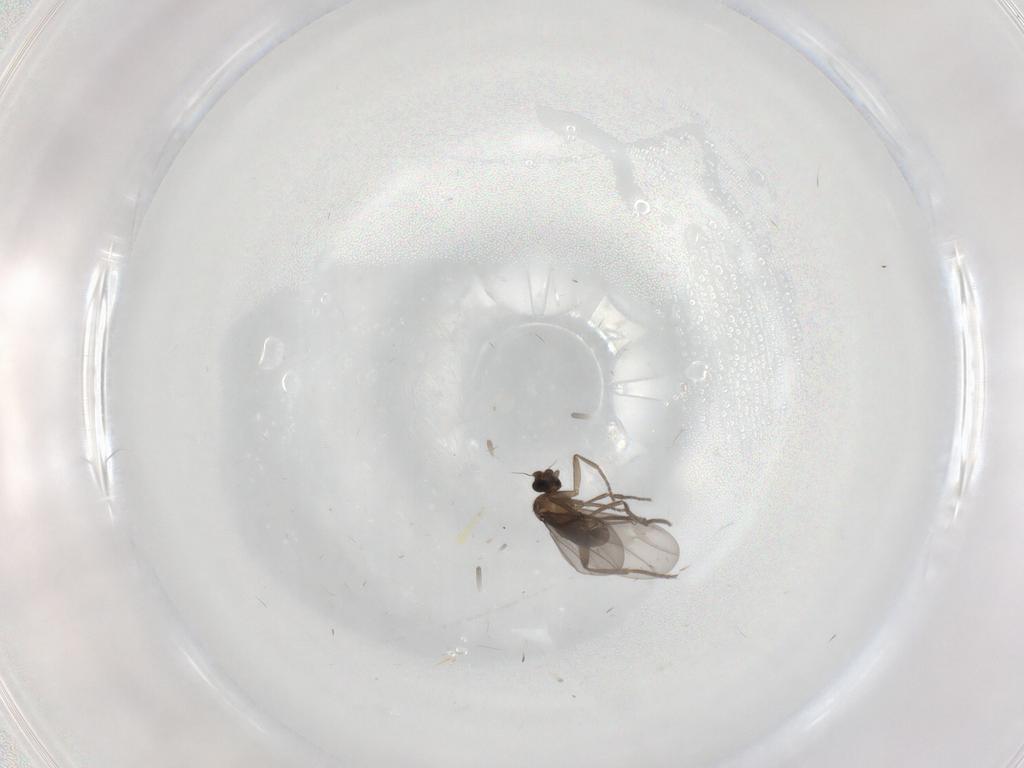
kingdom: Animalia
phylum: Arthropoda
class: Insecta
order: Diptera
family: Phoridae
